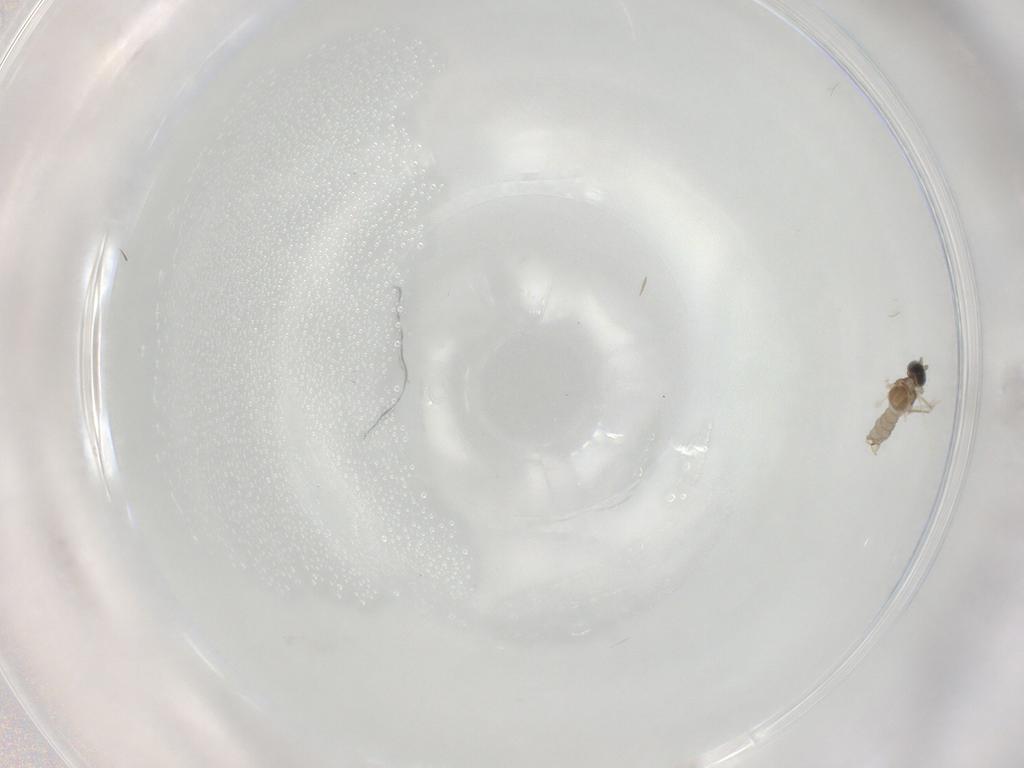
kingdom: Animalia
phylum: Arthropoda
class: Insecta
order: Diptera
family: Cecidomyiidae
